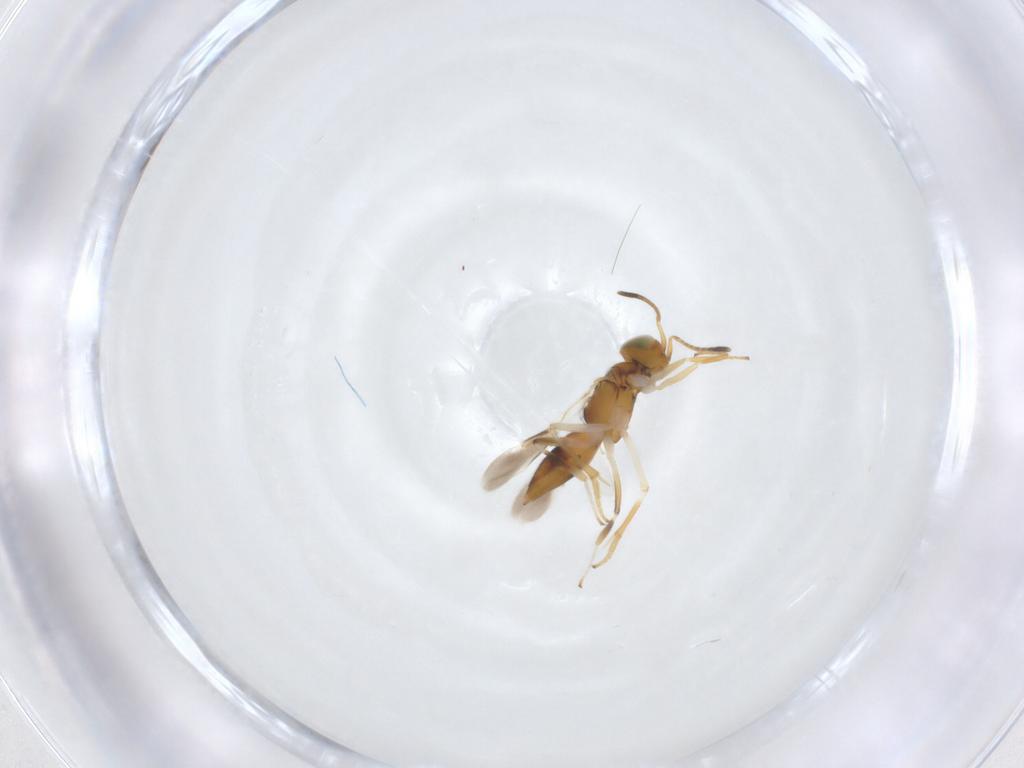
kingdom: Animalia
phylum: Arthropoda
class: Insecta
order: Hymenoptera
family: Encyrtidae
